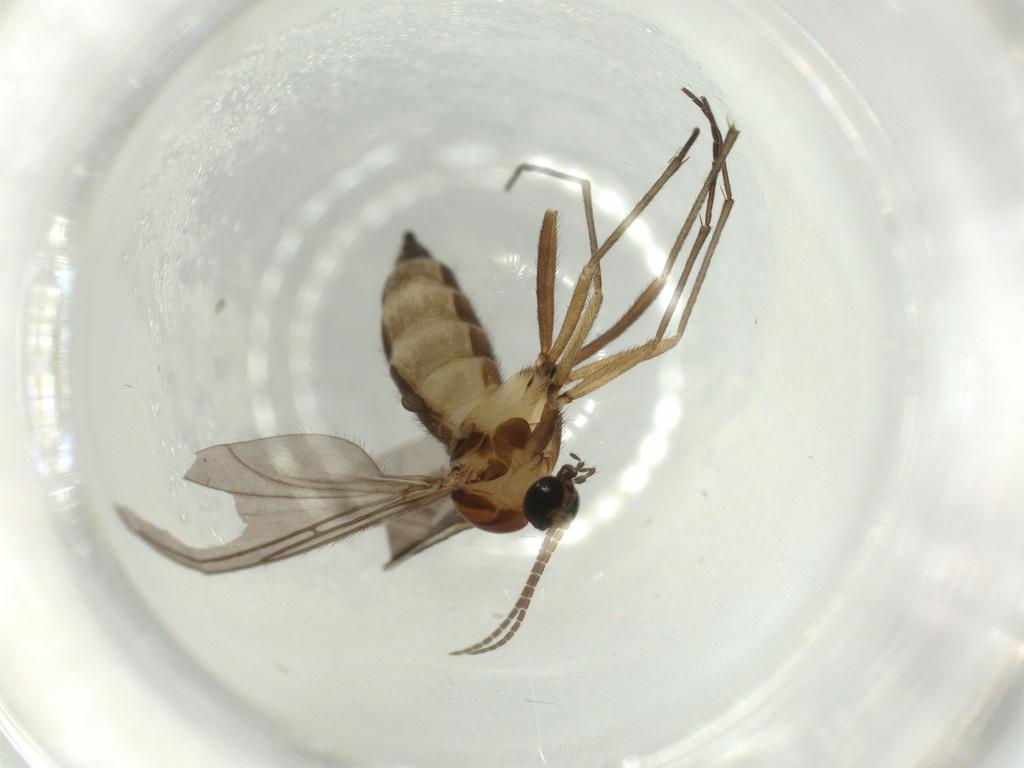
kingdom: Animalia
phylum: Arthropoda
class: Insecta
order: Diptera
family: Sciaridae
